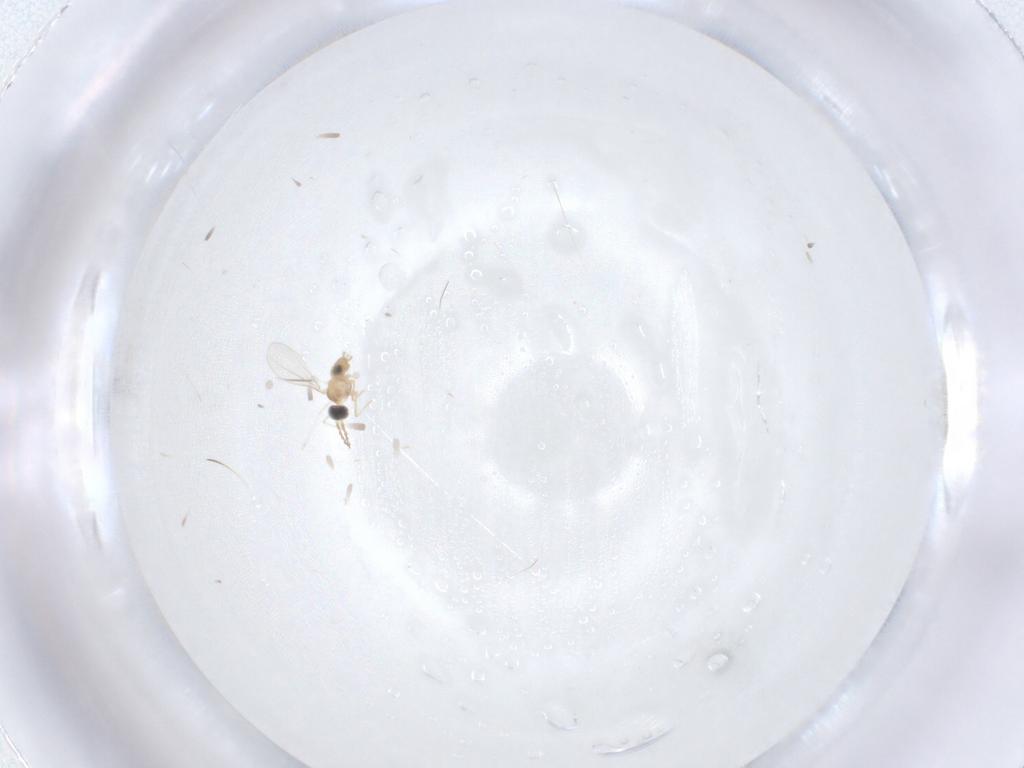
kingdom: Animalia
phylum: Arthropoda
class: Insecta
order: Diptera
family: Cecidomyiidae
